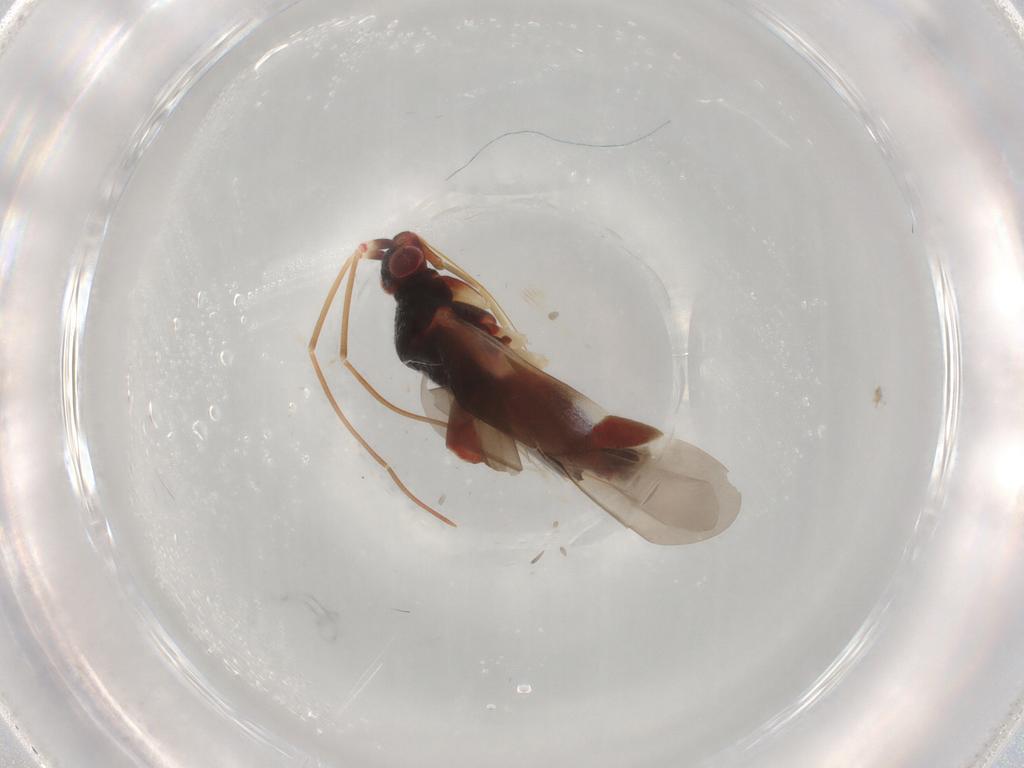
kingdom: Animalia
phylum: Arthropoda
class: Insecta
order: Hemiptera
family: Miridae
